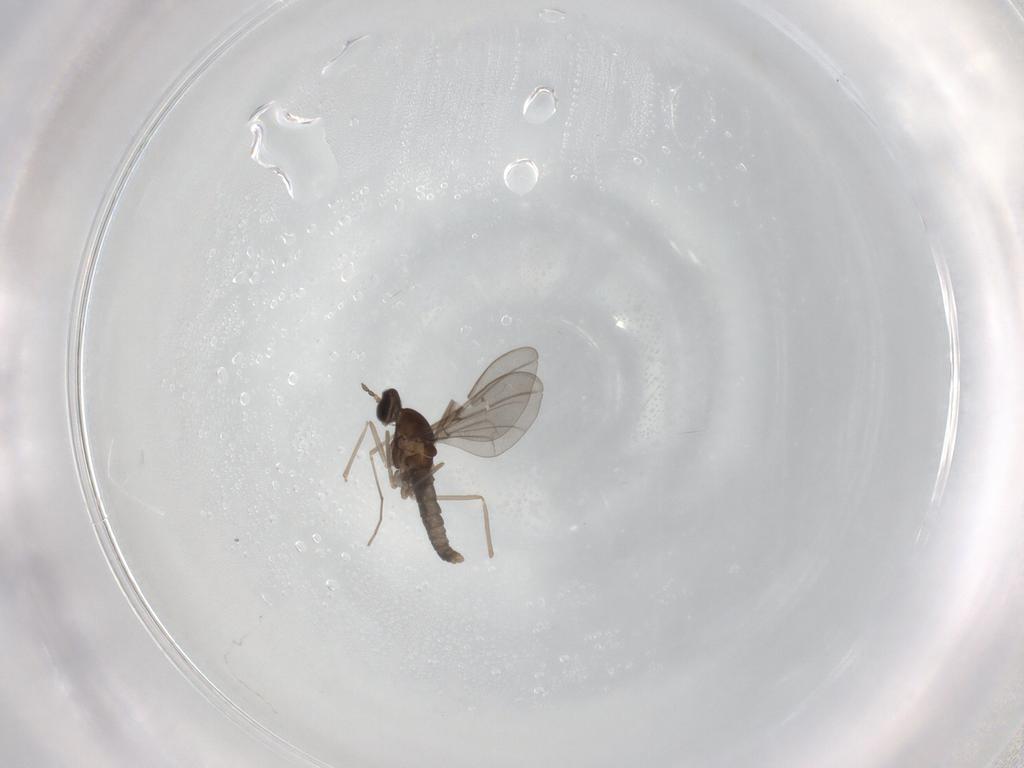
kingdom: Animalia
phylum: Arthropoda
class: Insecta
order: Diptera
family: Cecidomyiidae
